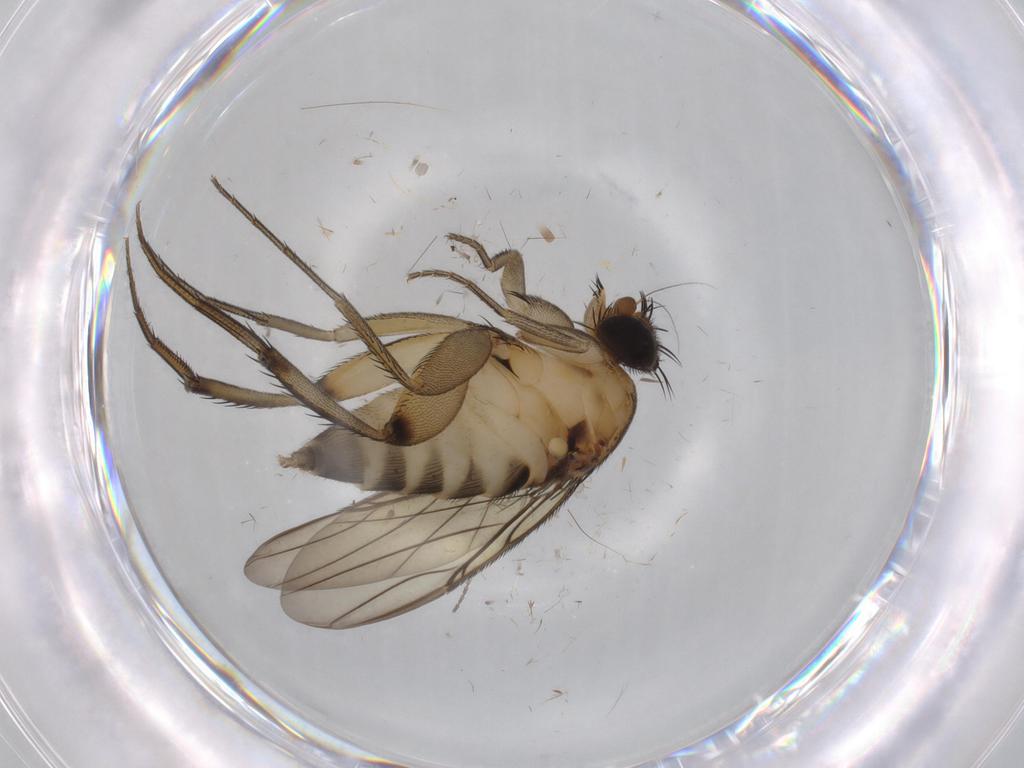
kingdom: Animalia
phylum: Arthropoda
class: Insecta
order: Diptera
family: Phoridae
